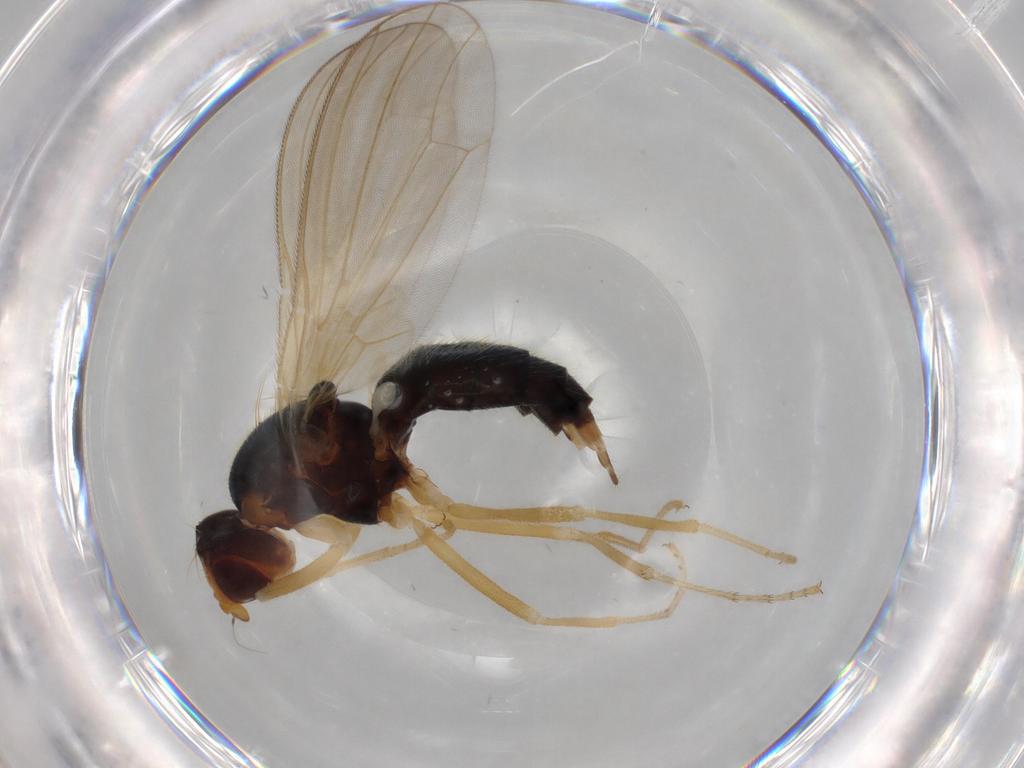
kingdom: Animalia
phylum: Arthropoda
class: Insecta
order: Diptera
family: Psilidae
